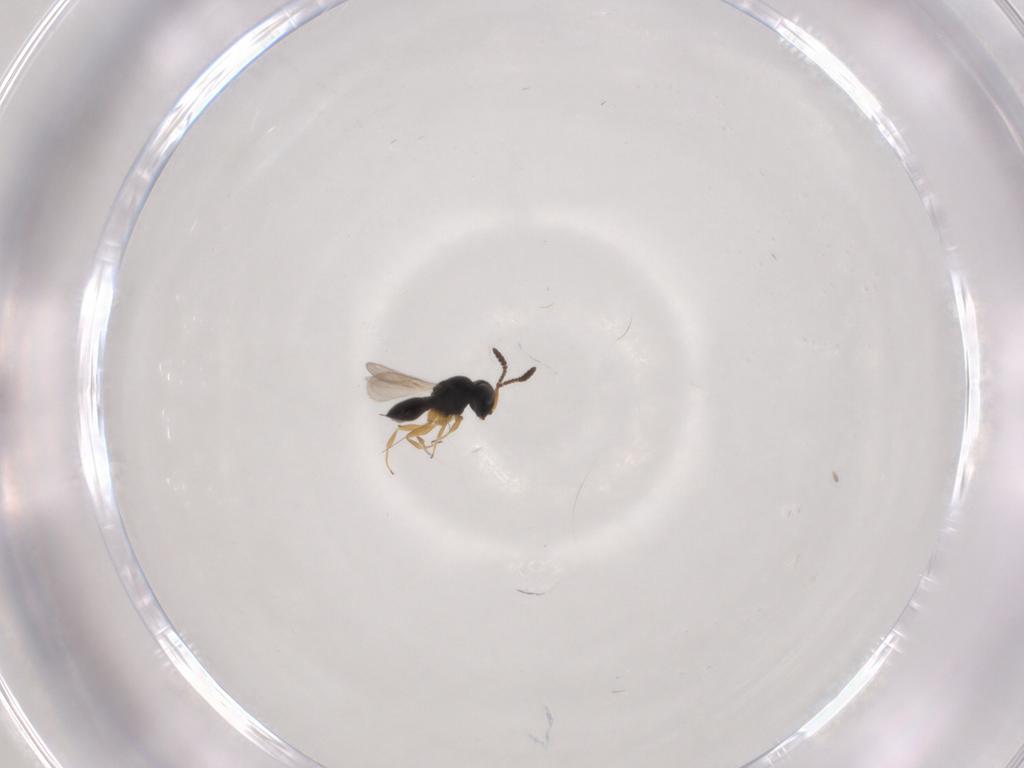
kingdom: Animalia
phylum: Arthropoda
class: Insecta
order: Hymenoptera
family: Scelionidae
